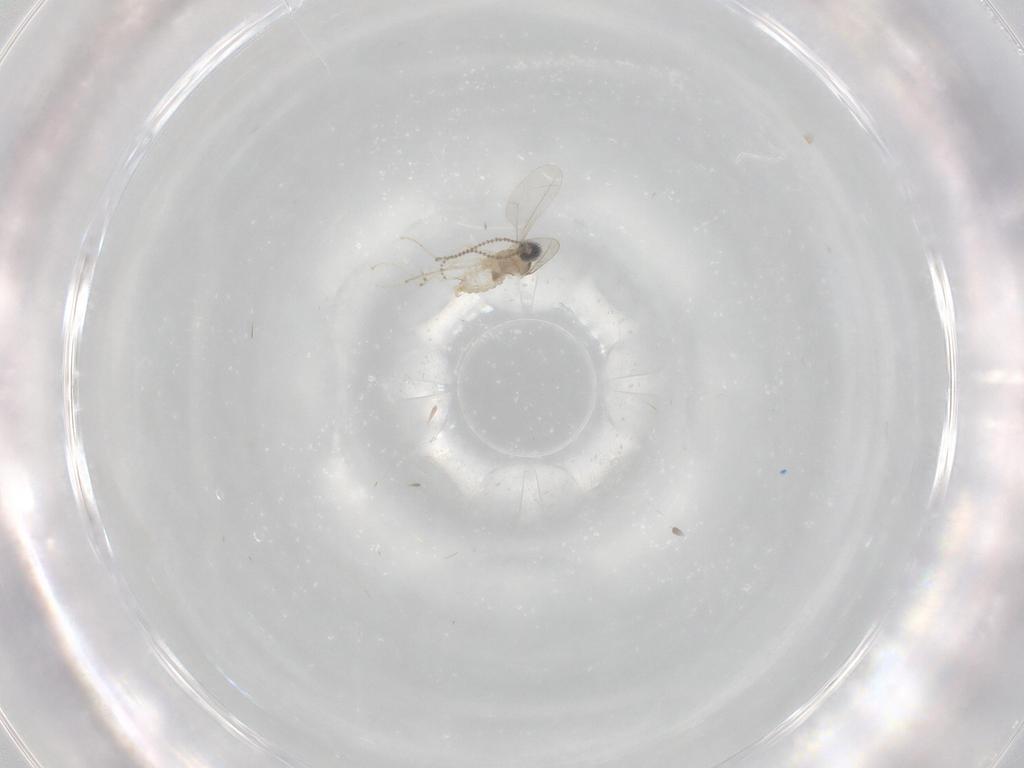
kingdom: Animalia
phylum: Arthropoda
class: Insecta
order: Diptera
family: Cecidomyiidae
